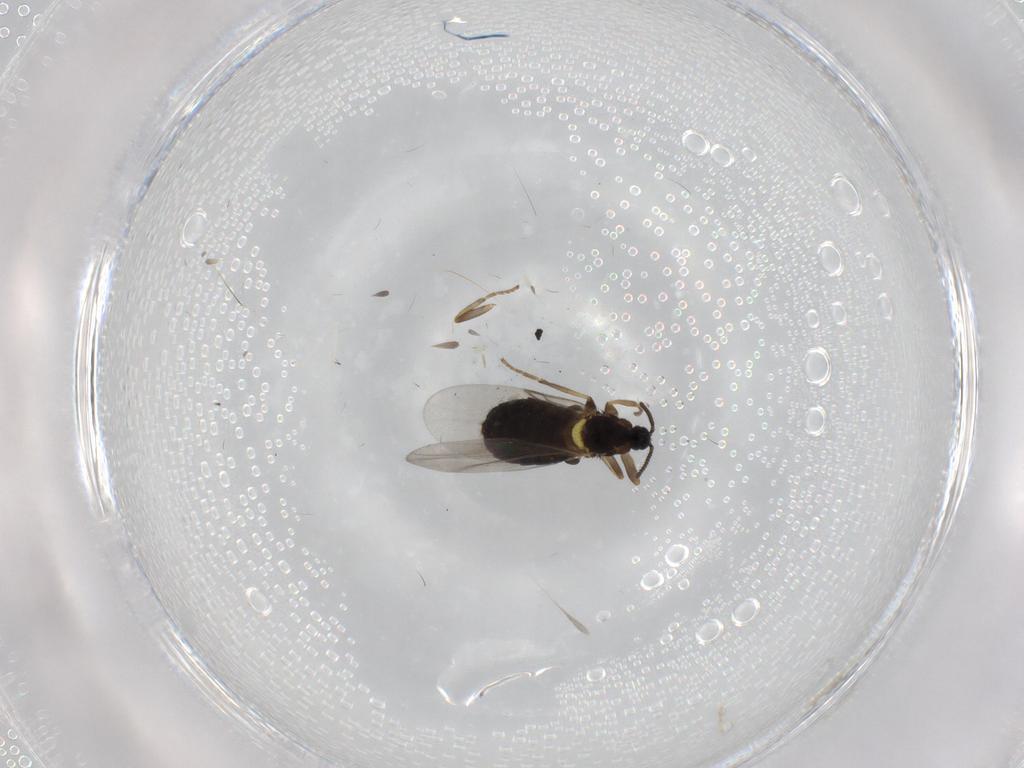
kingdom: Animalia
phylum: Arthropoda
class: Insecta
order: Diptera
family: Scatopsidae
